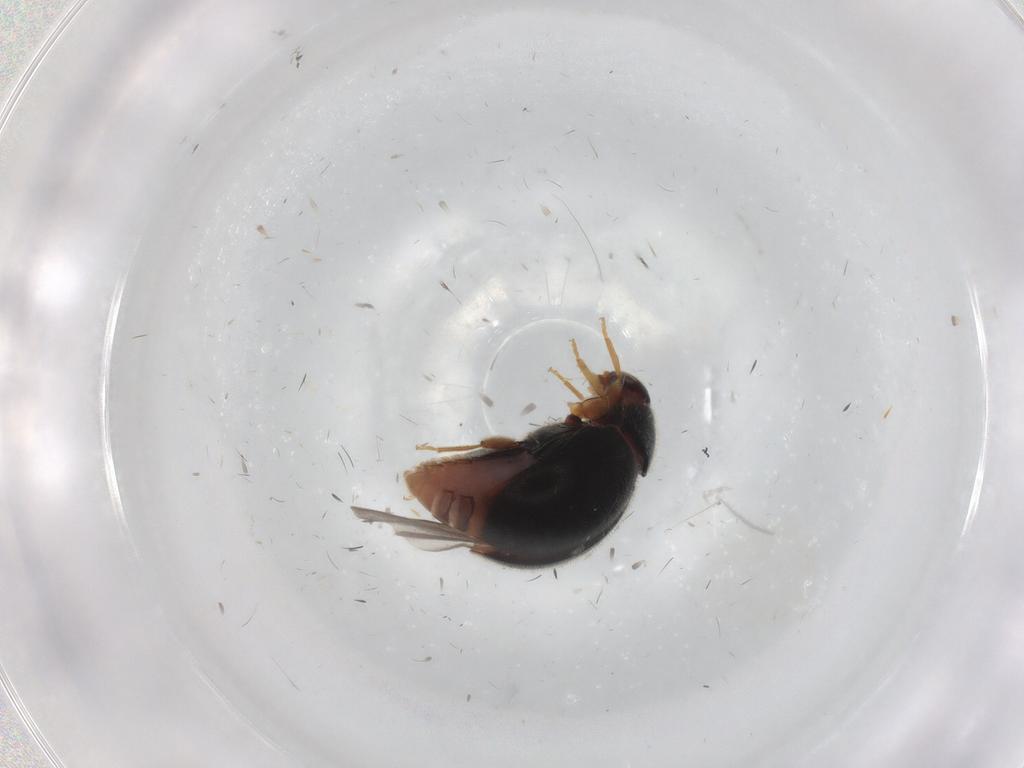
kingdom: Animalia
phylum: Arthropoda
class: Insecta
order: Coleoptera
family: Coccinellidae
